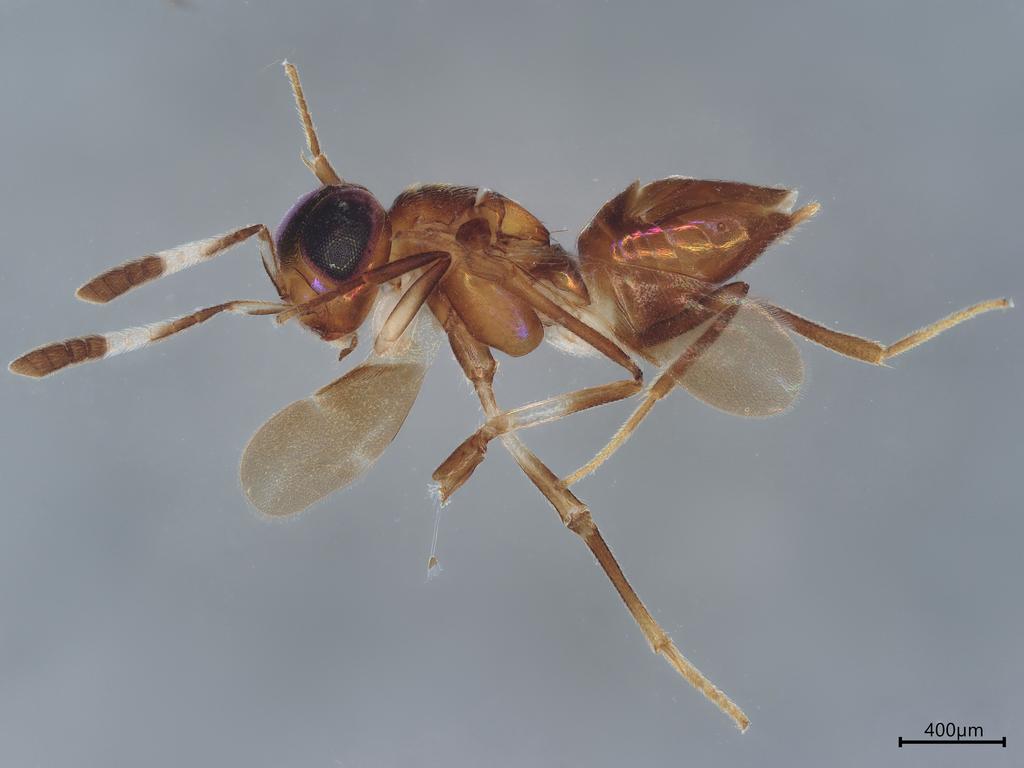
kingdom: Animalia
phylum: Arthropoda
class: Insecta
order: Hymenoptera
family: Encyrtidae
